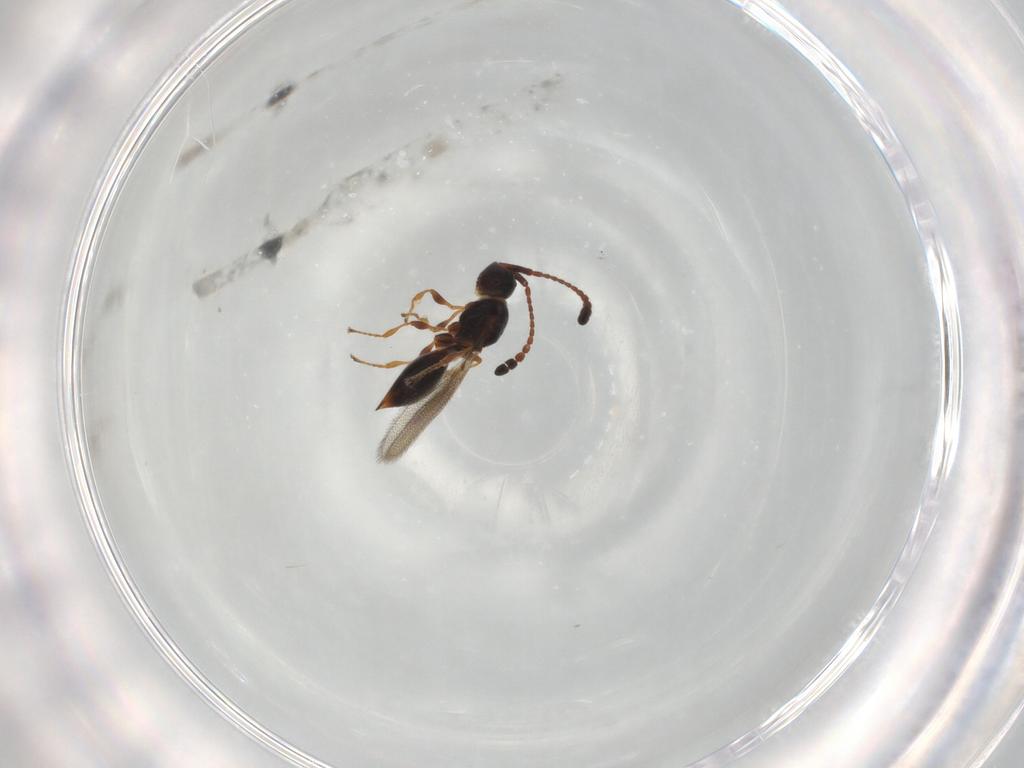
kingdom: Animalia
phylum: Arthropoda
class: Insecta
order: Hymenoptera
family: Diapriidae
